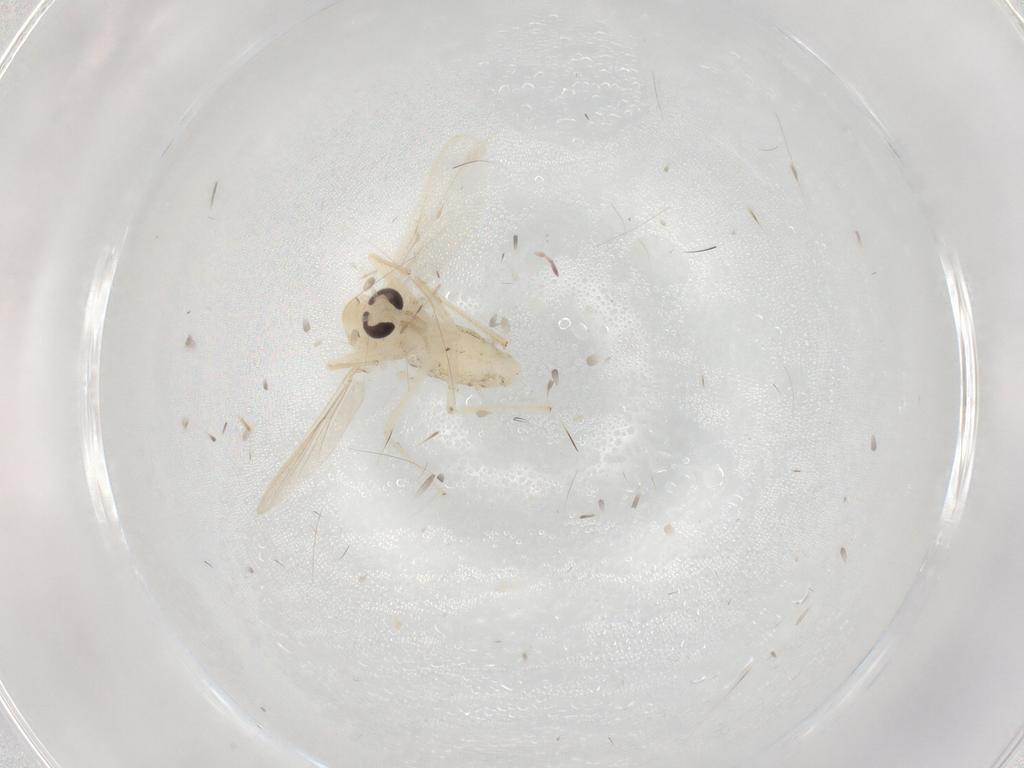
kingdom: Animalia
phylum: Arthropoda
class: Insecta
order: Diptera
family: Chironomidae
